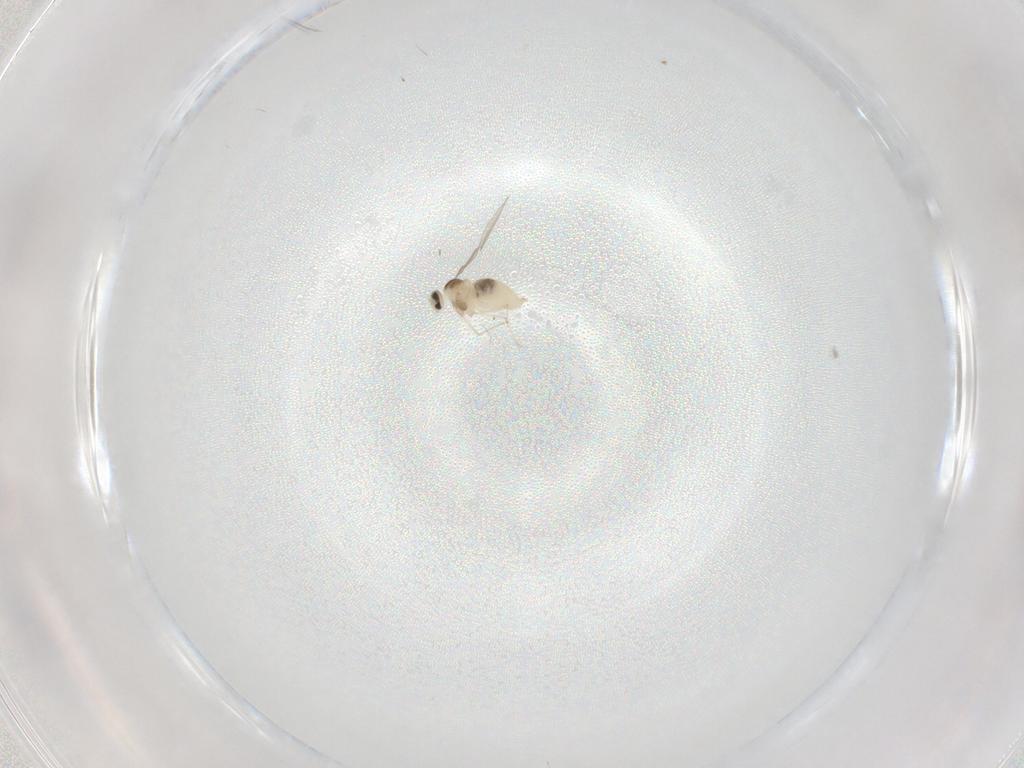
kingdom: Animalia
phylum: Arthropoda
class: Insecta
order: Diptera
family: Cecidomyiidae
